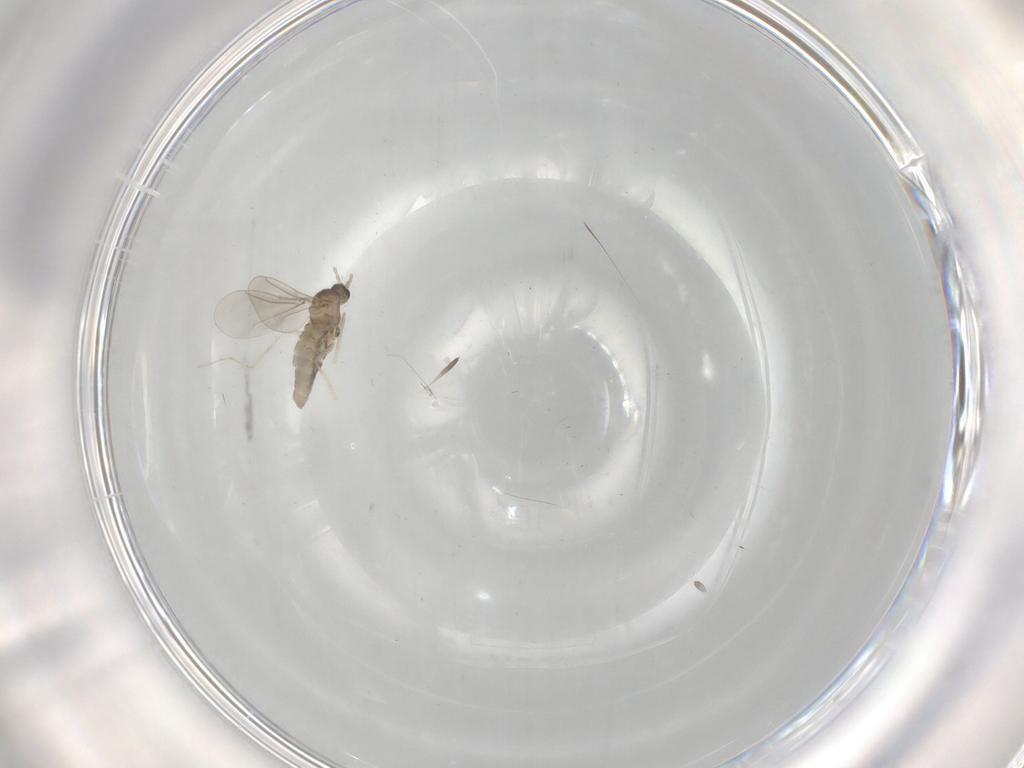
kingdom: Animalia
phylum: Arthropoda
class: Insecta
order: Diptera
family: Cecidomyiidae
